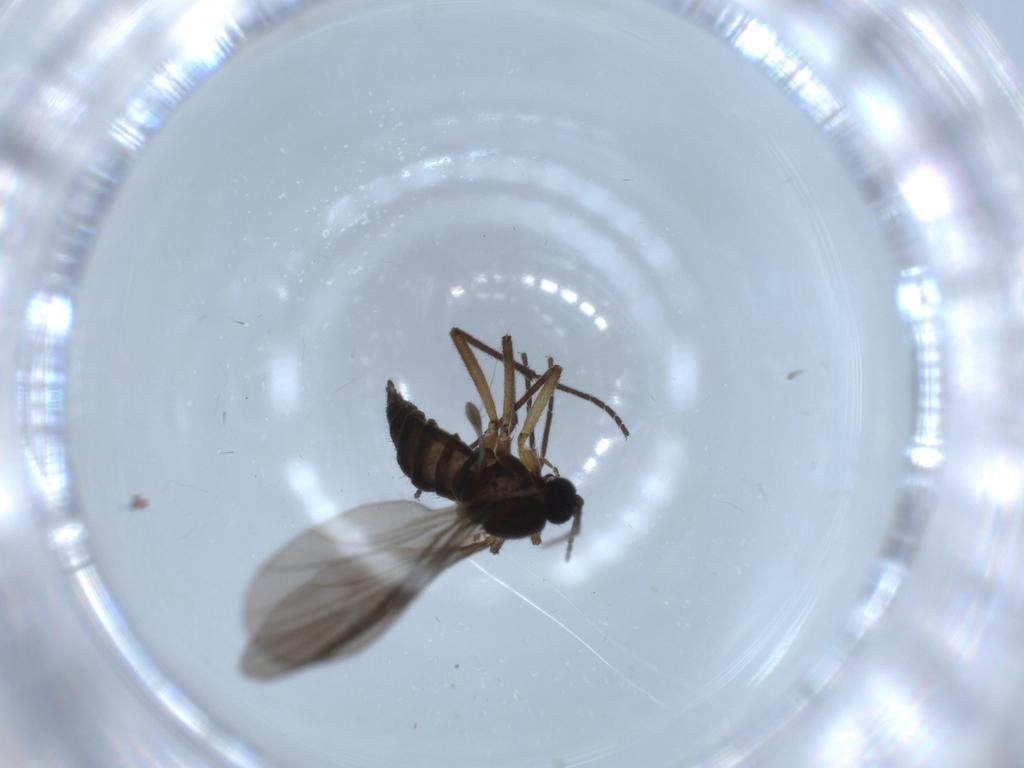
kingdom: Animalia
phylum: Arthropoda
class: Insecta
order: Diptera
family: Sciaridae
